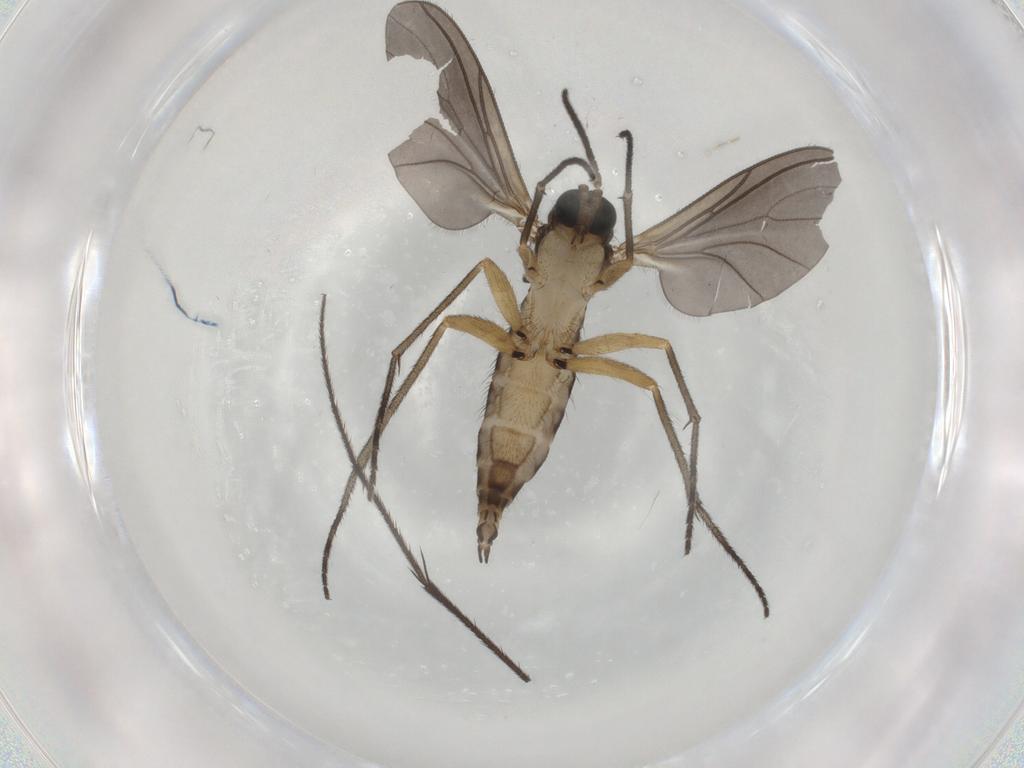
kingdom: Animalia
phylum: Arthropoda
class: Insecta
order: Diptera
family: Sciaridae
